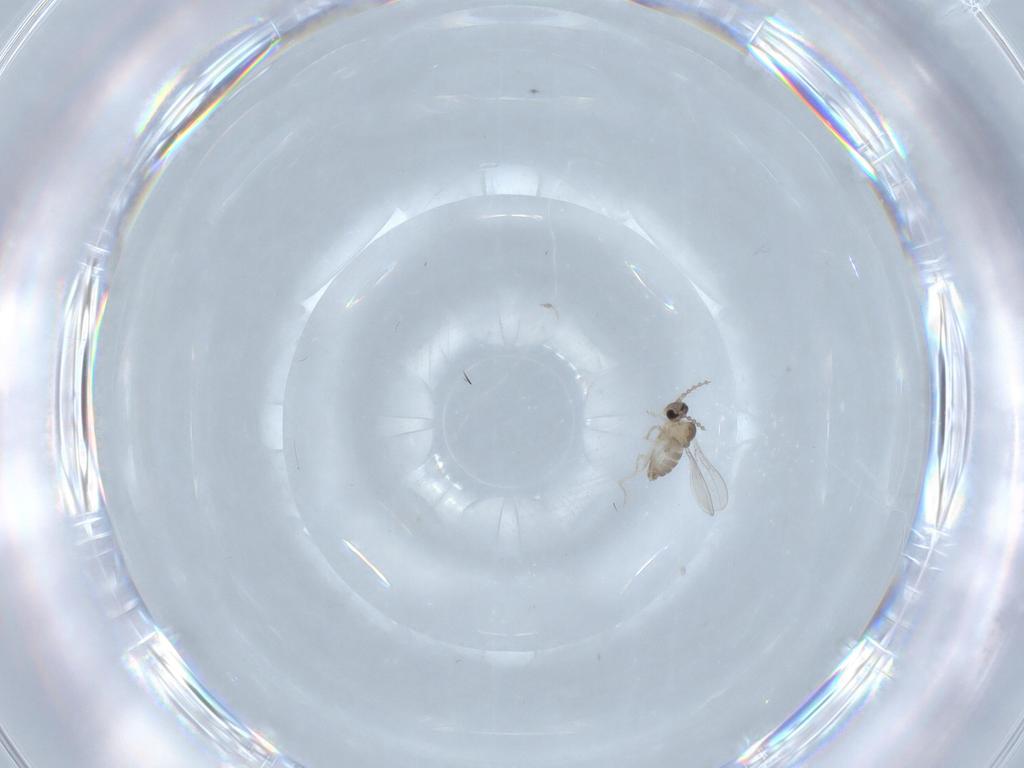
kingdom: Animalia
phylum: Arthropoda
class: Insecta
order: Diptera
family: Cecidomyiidae
